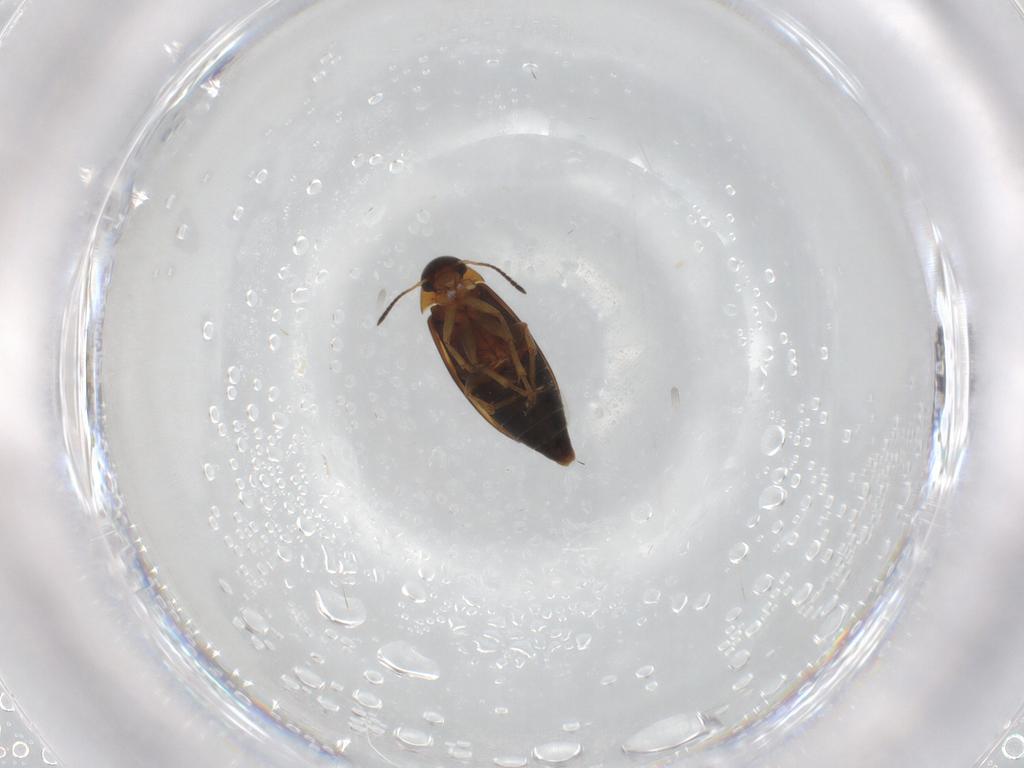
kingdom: Animalia
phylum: Arthropoda
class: Insecta
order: Coleoptera
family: Scraptiidae
